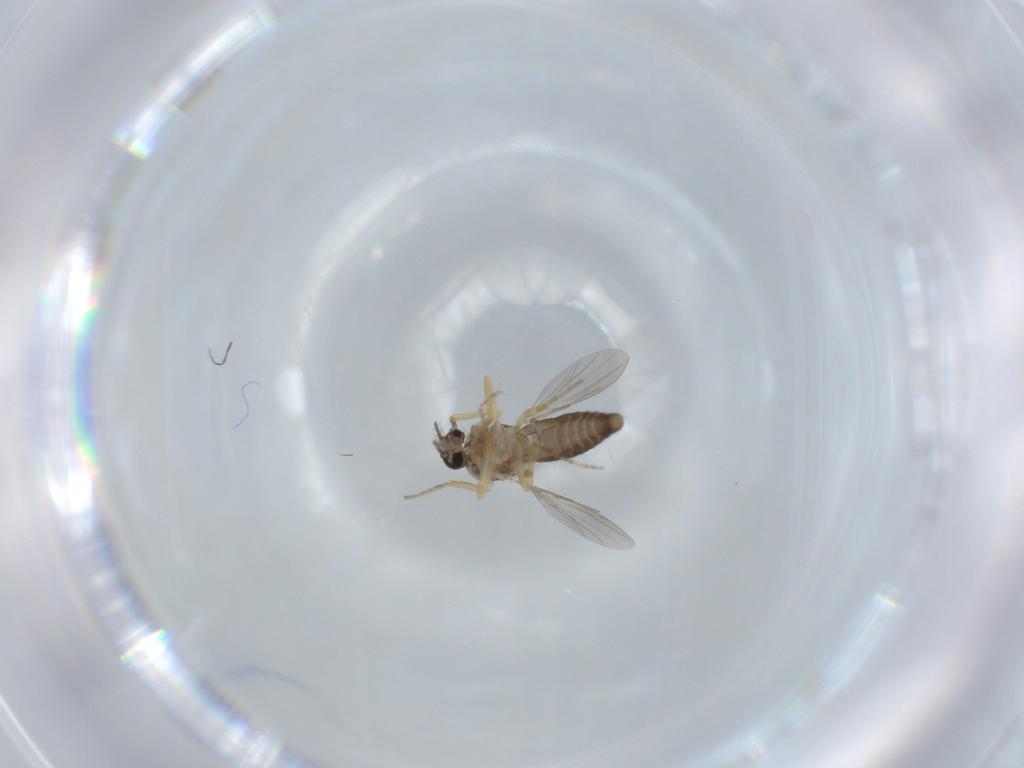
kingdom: Animalia
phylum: Arthropoda
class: Insecta
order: Diptera
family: Ceratopogonidae
